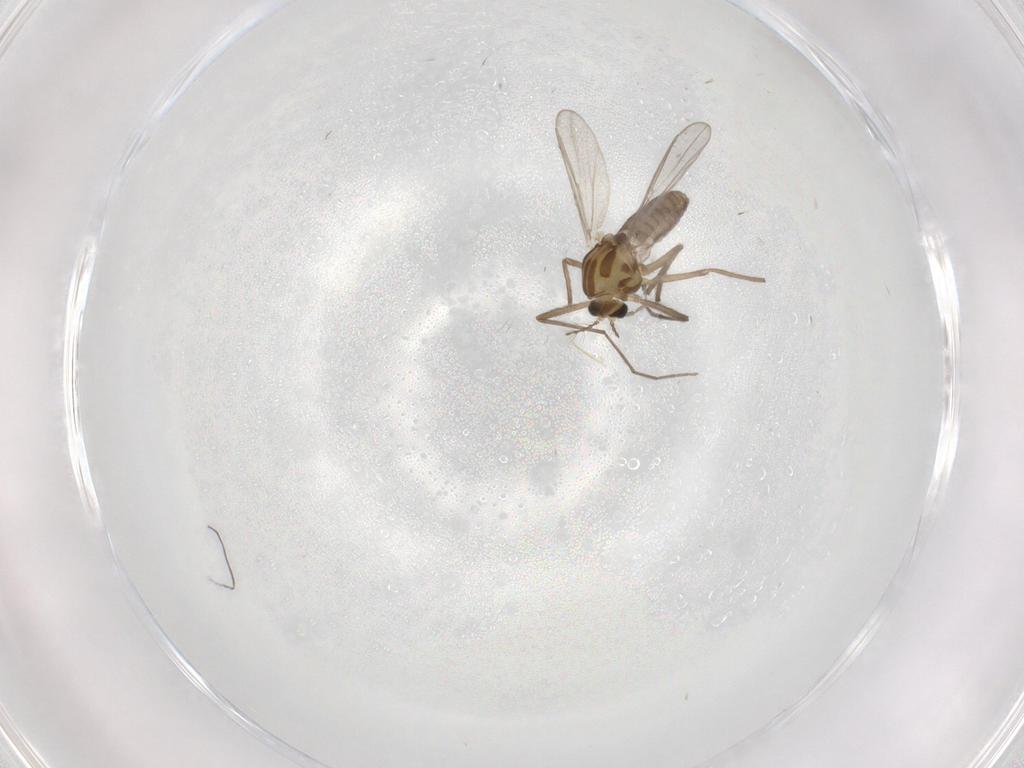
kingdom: Animalia
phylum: Arthropoda
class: Insecta
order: Diptera
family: Chironomidae
